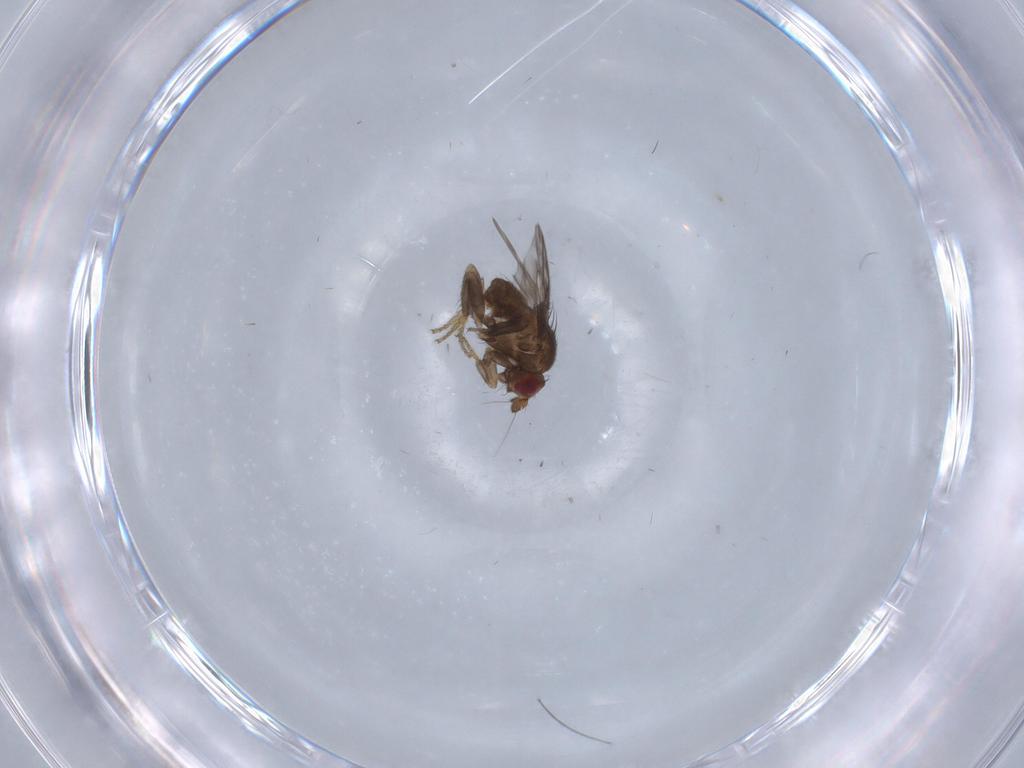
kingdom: Animalia
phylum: Arthropoda
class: Insecta
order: Diptera
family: Sphaeroceridae
